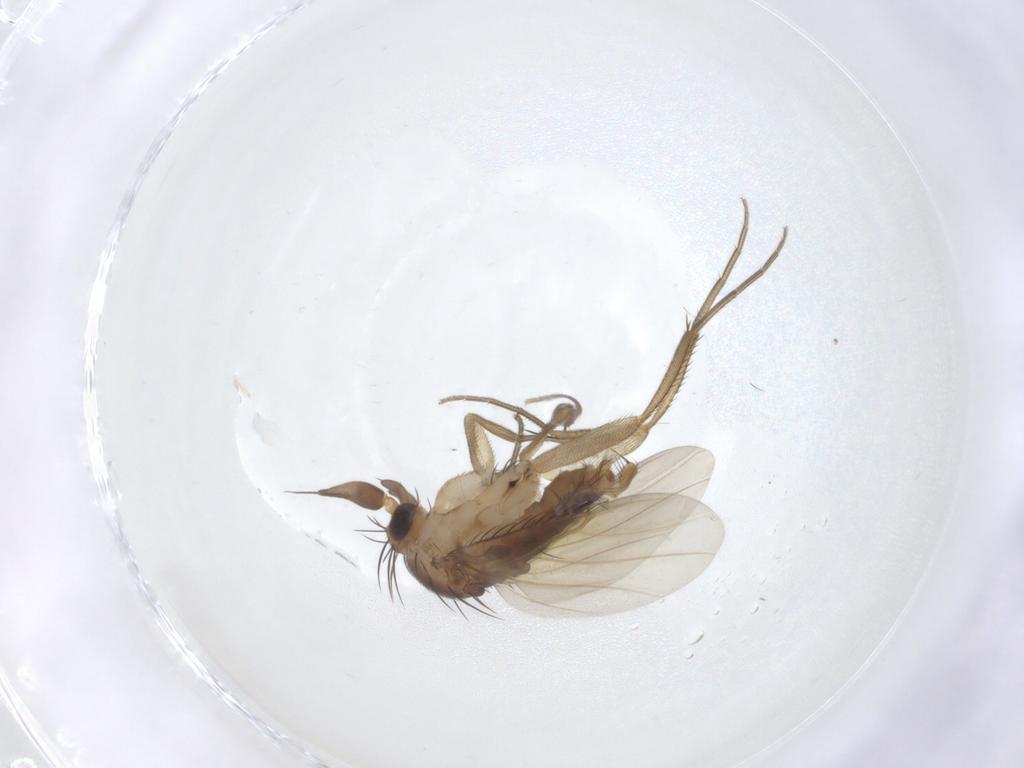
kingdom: Animalia
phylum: Arthropoda
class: Insecta
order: Diptera
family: Phoridae
